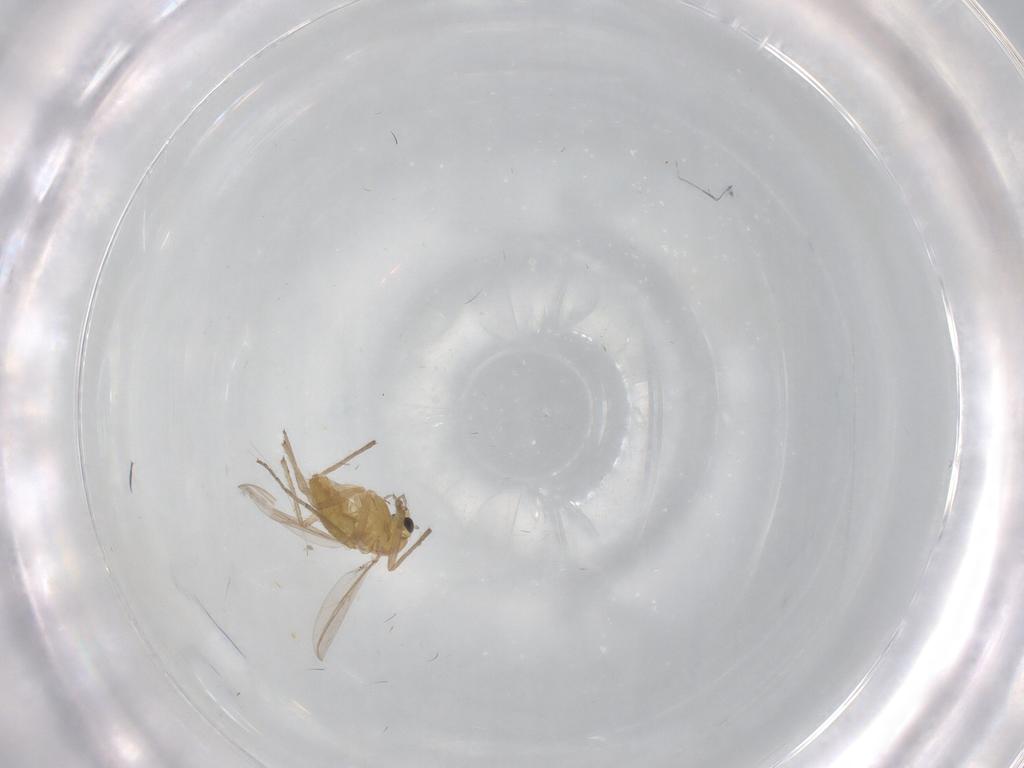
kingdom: Animalia
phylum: Arthropoda
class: Insecta
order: Diptera
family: Chironomidae
